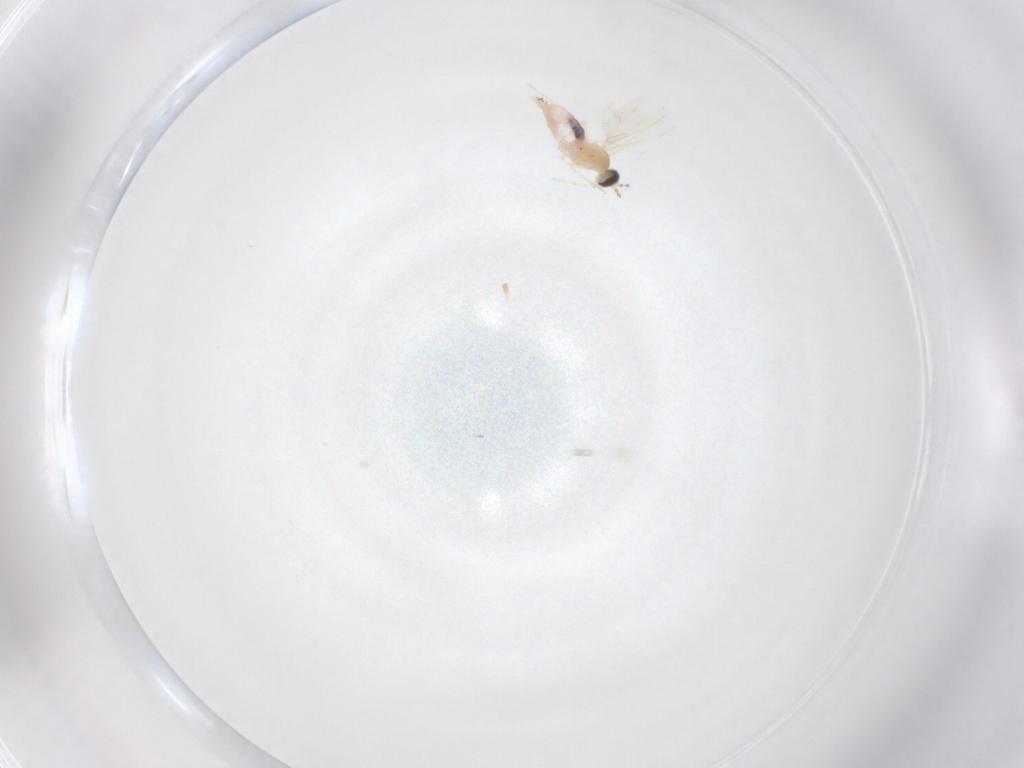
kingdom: Animalia
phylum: Arthropoda
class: Insecta
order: Diptera
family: Cecidomyiidae
